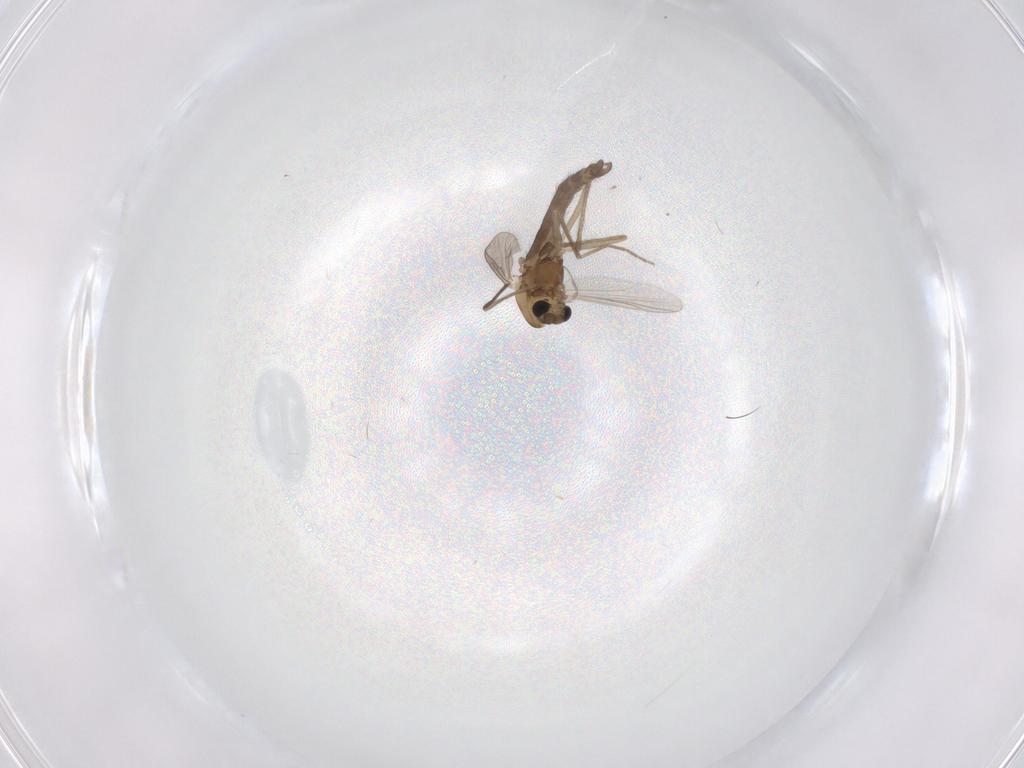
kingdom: Animalia
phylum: Arthropoda
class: Insecta
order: Diptera
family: Chironomidae
